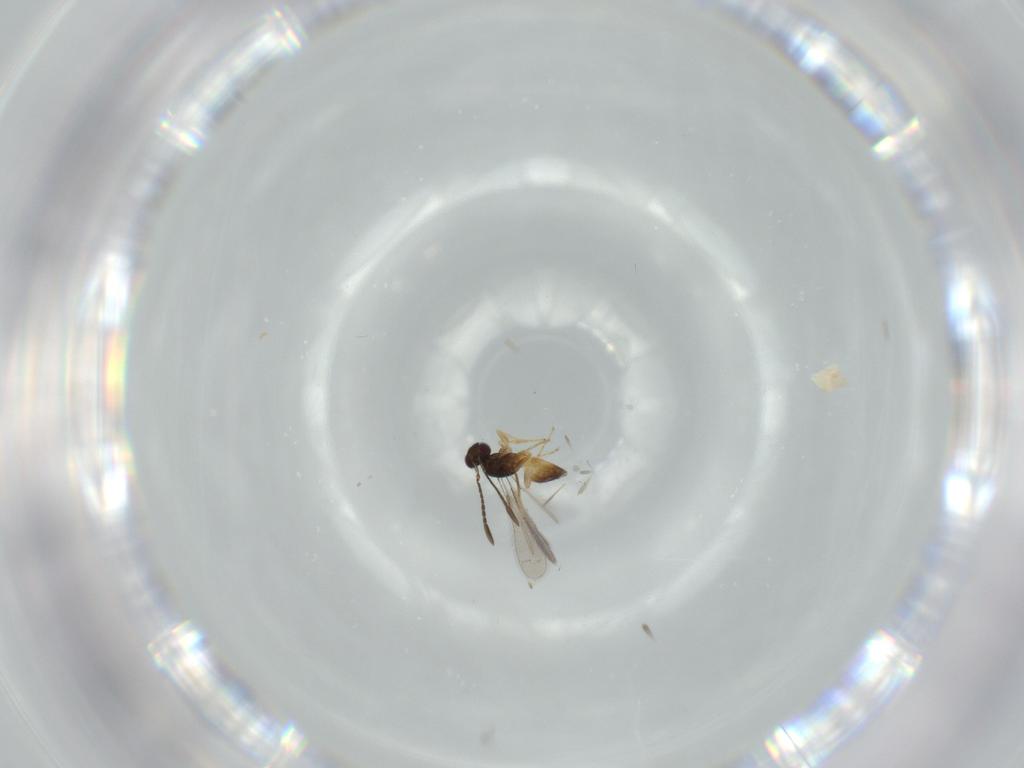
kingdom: Animalia
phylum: Arthropoda
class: Insecta
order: Hymenoptera
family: Mymaridae
